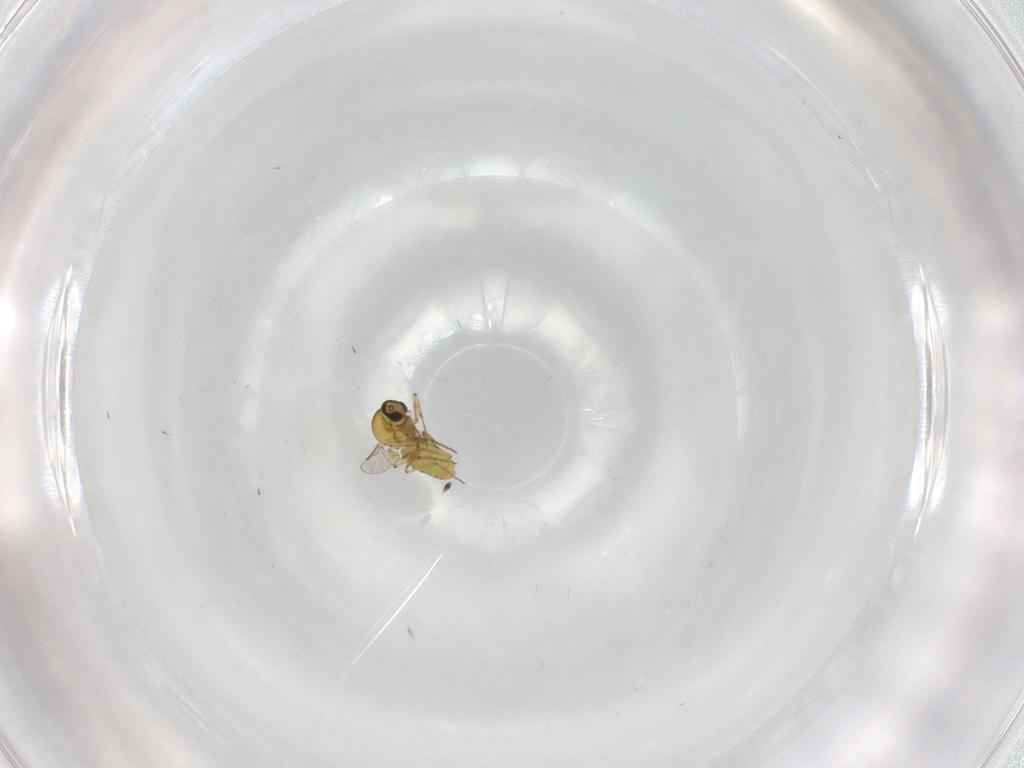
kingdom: Animalia
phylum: Arthropoda
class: Insecta
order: Diptera
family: Ceratopogonidae
